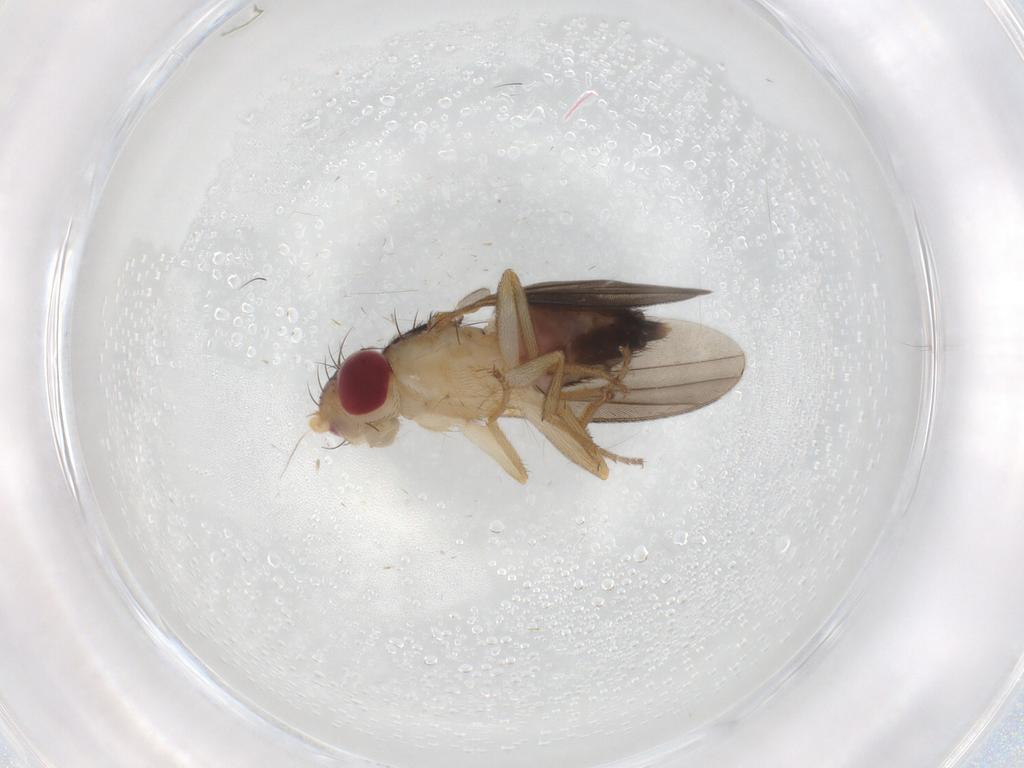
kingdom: Animalia
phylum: Arthropoda
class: Insecta
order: Diptera
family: Clusiidae
